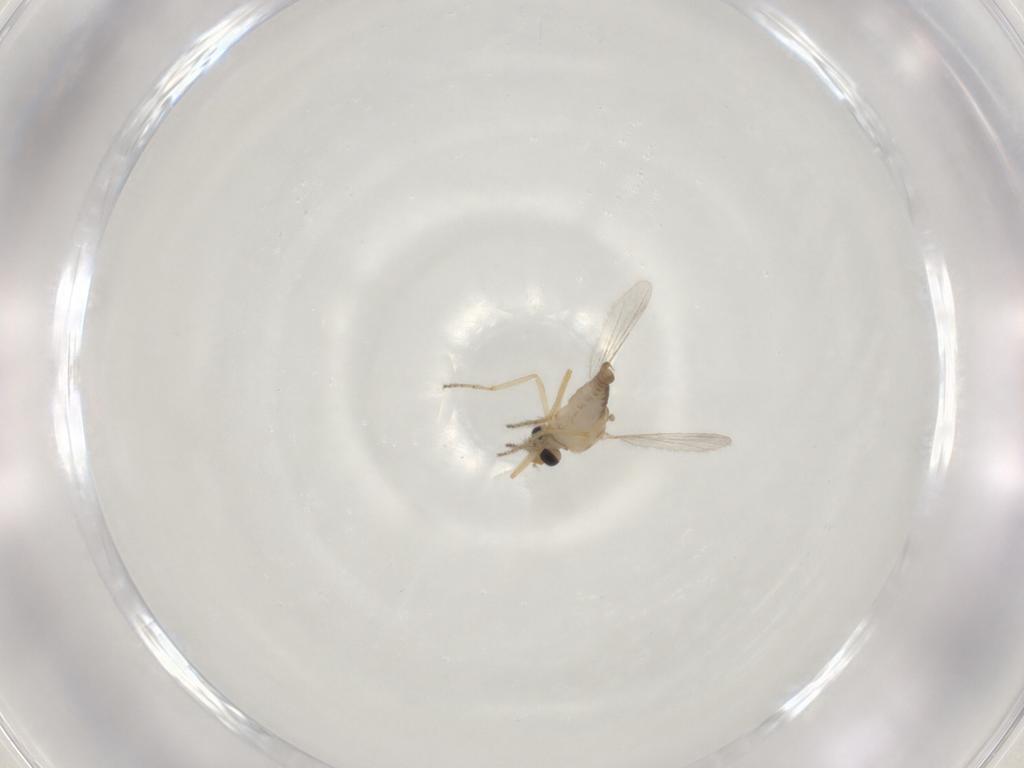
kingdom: Animalia
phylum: Arthropoda
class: Insecta
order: Diptera
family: Ceratopogonidae
